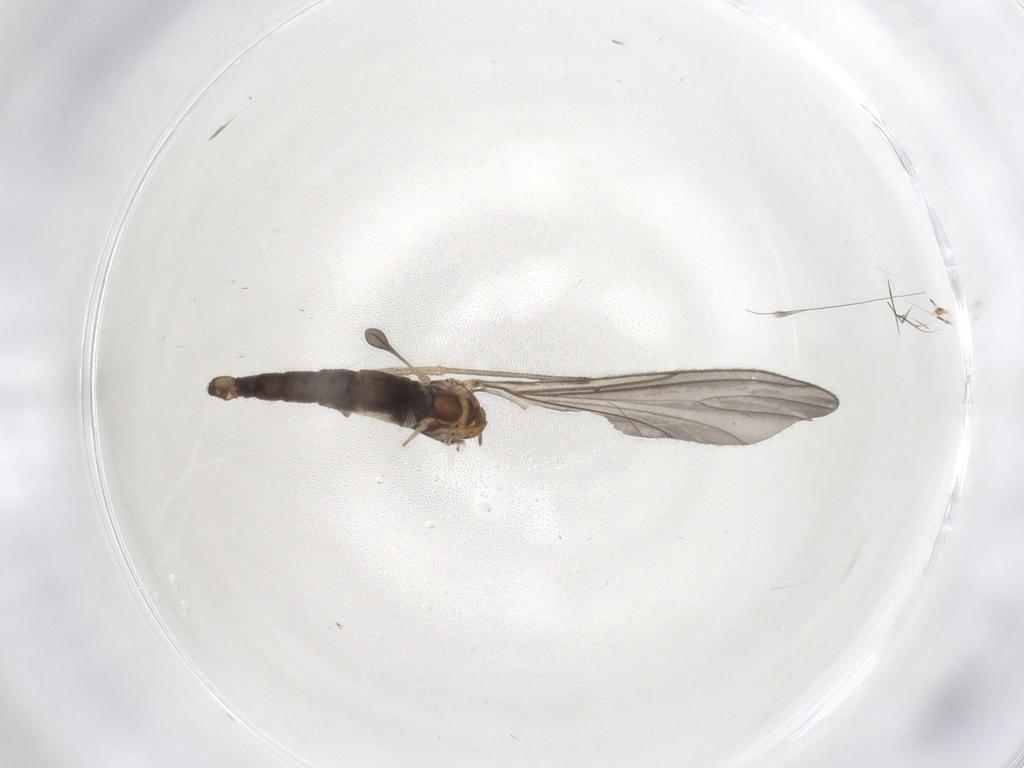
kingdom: Animalia
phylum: Arthropoda
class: Insecta
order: Diptera
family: Sciaridae
